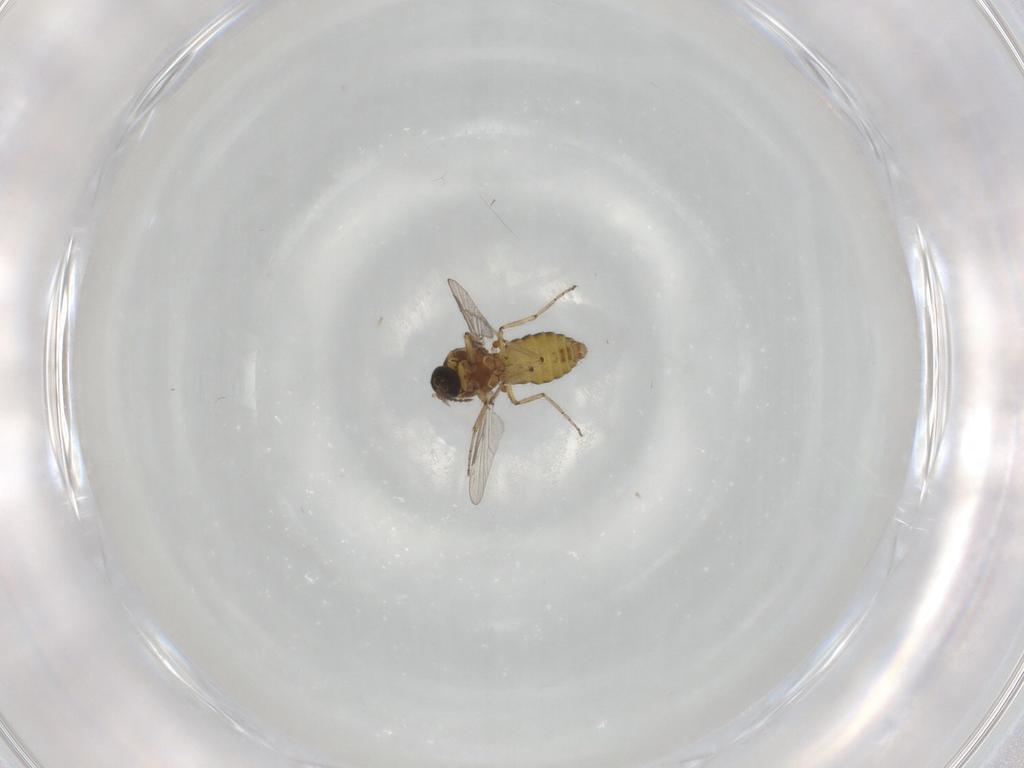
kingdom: Animalia
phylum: Arthropoda
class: Insecta
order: Diptera
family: Ceratopogonidae
